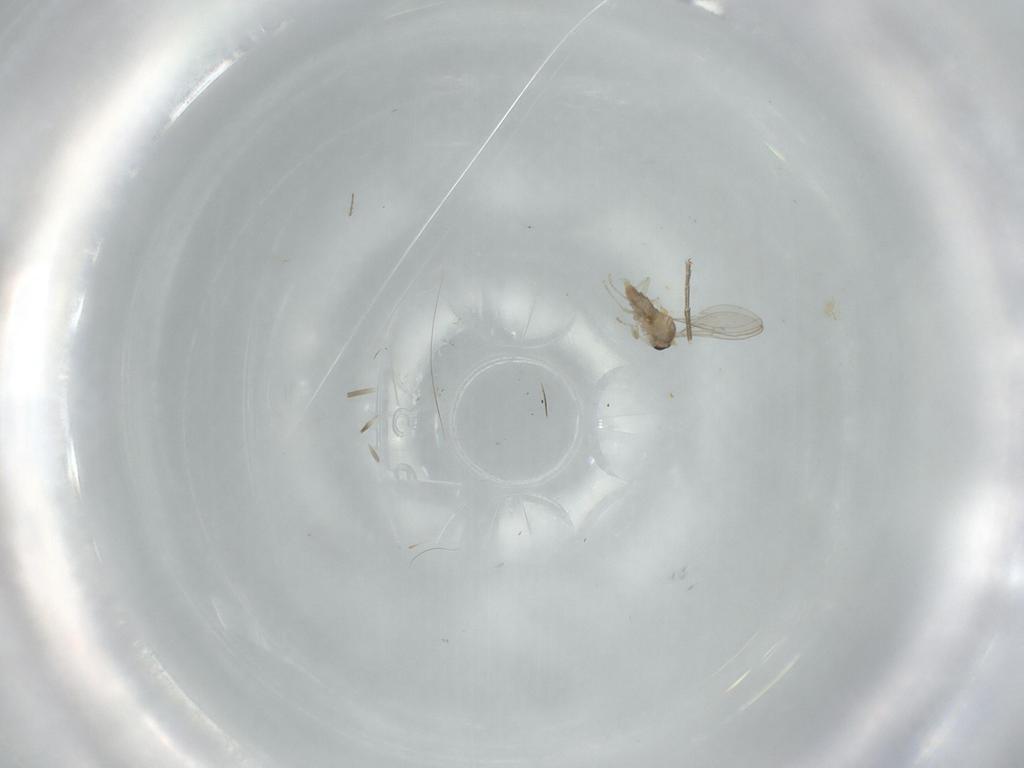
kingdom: Animalia
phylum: Arthropoda
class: Insecta
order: Diptera
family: Cecidomyiidae
